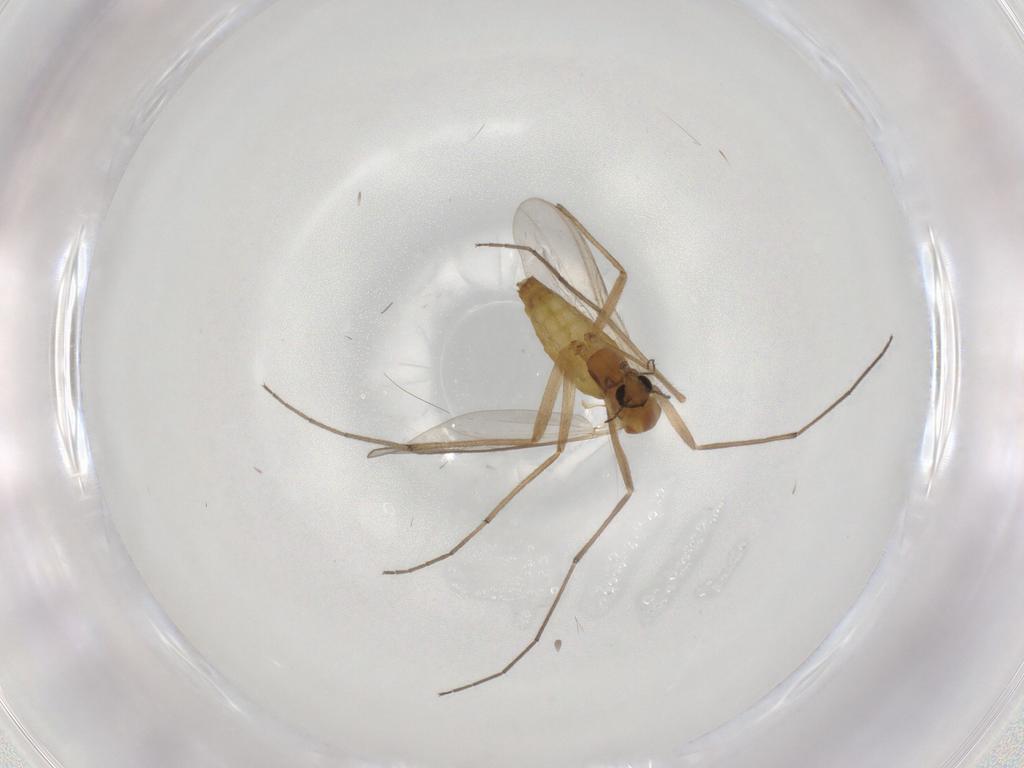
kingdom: Animalia
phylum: Arthropoda
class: Insecta
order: Diptera
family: Chironomidae
